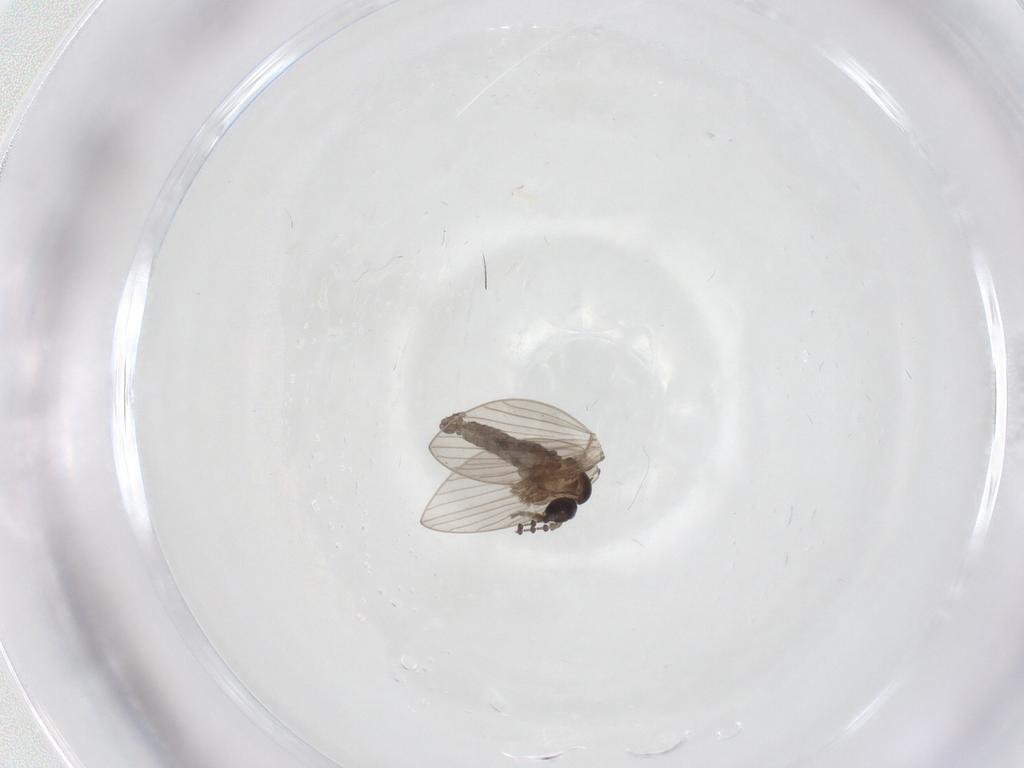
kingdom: Animalia
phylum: Arthropoda
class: Insecta
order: Diptera
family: Psychodidae
